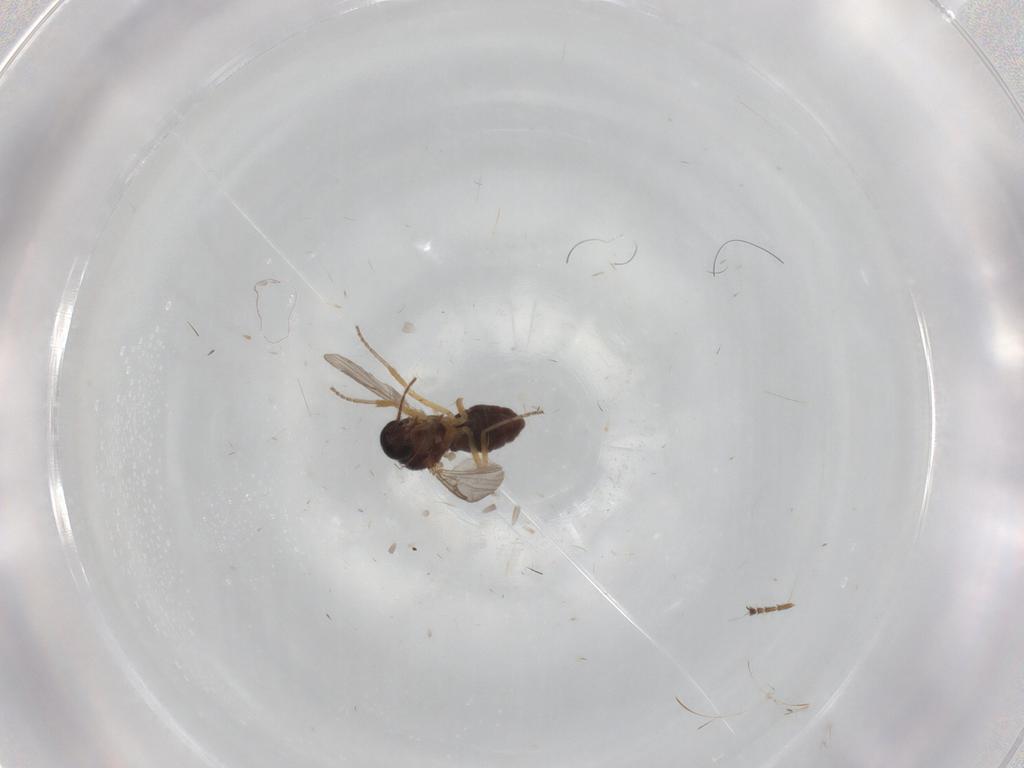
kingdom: Animalia
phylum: Arthropoda
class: Insecta
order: Diptera
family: Ceratopogonidae
